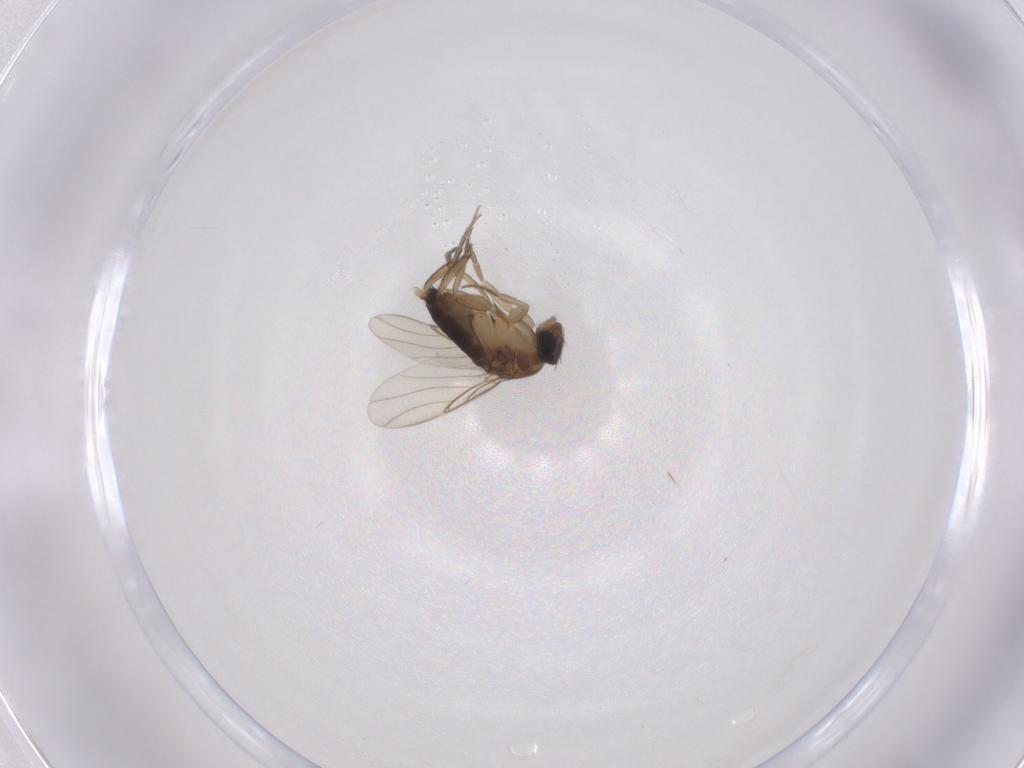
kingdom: Animalia
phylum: Arthropoda
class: Insecta
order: Diptera
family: Phoridae
